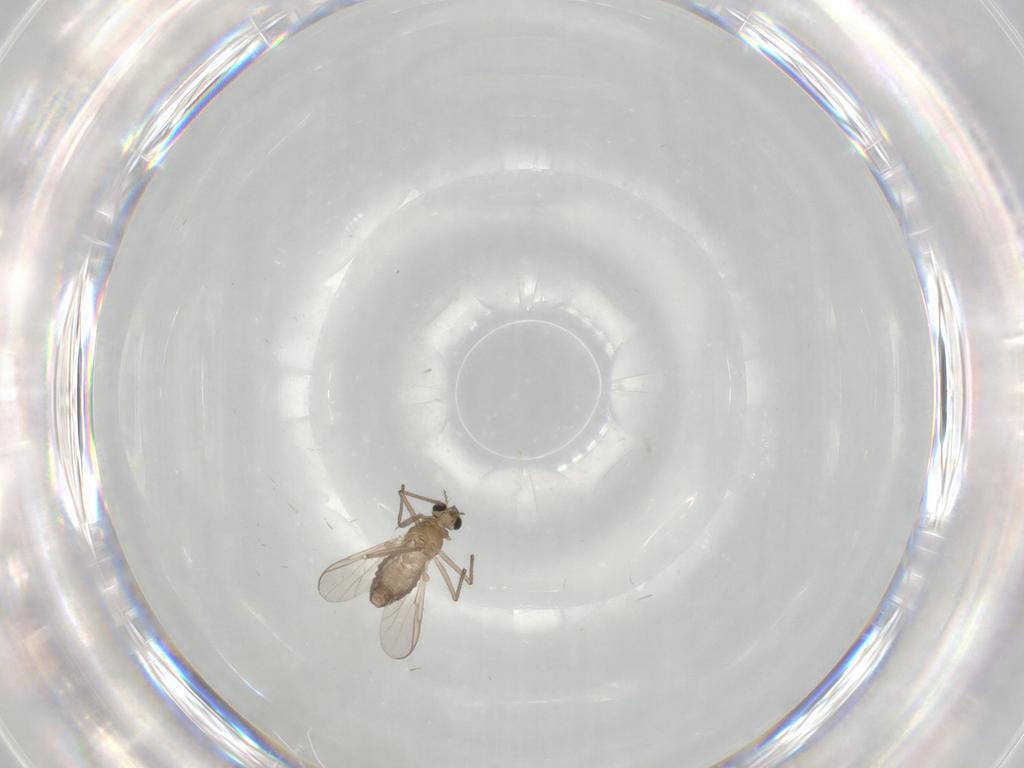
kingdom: Animalia
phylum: Arthropoda
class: Insecta
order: Diptera
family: Chironomidae
